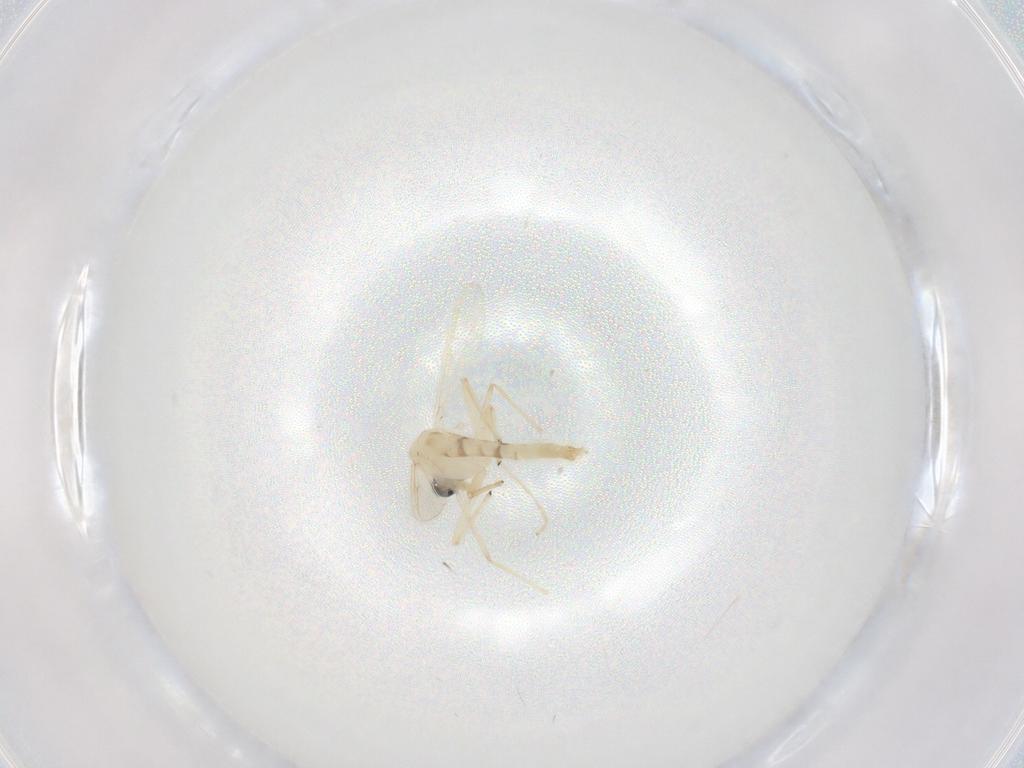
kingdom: Animalia
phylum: Arthropoda
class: Insecta
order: Diptera
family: Chironomidae
